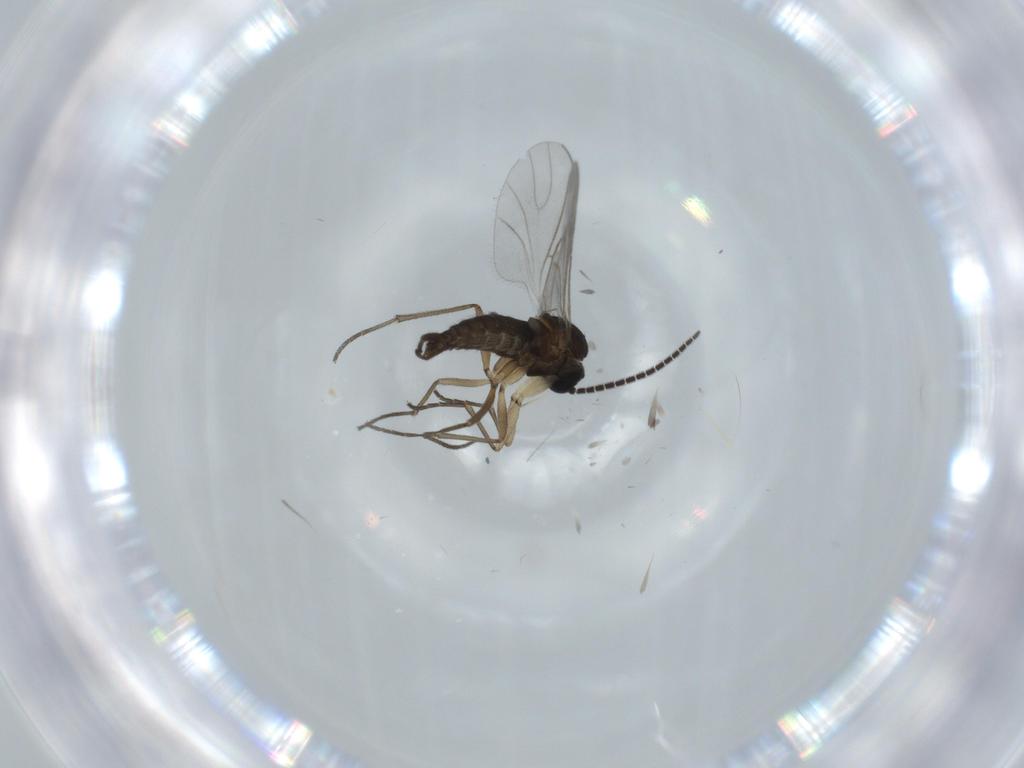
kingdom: Animalia
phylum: Arthropoda
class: Insecta
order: Diptera
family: Sciaridae
